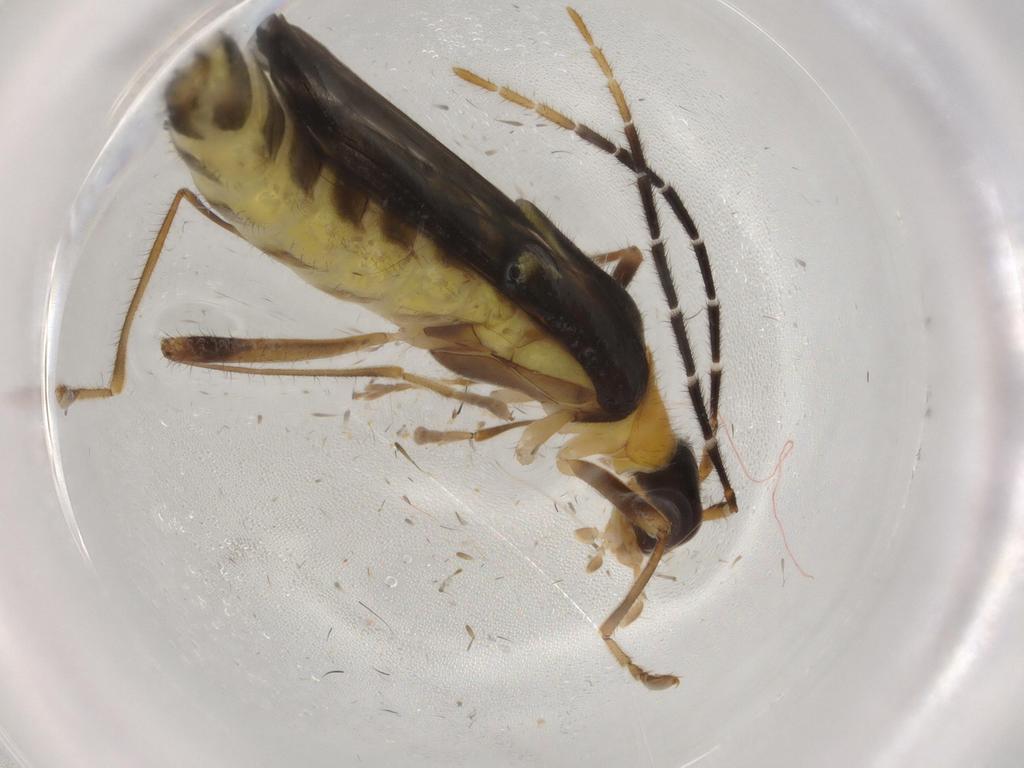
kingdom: Animalia
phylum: Arthropoda
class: Insecta
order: Coleoptera
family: Cantharidae
